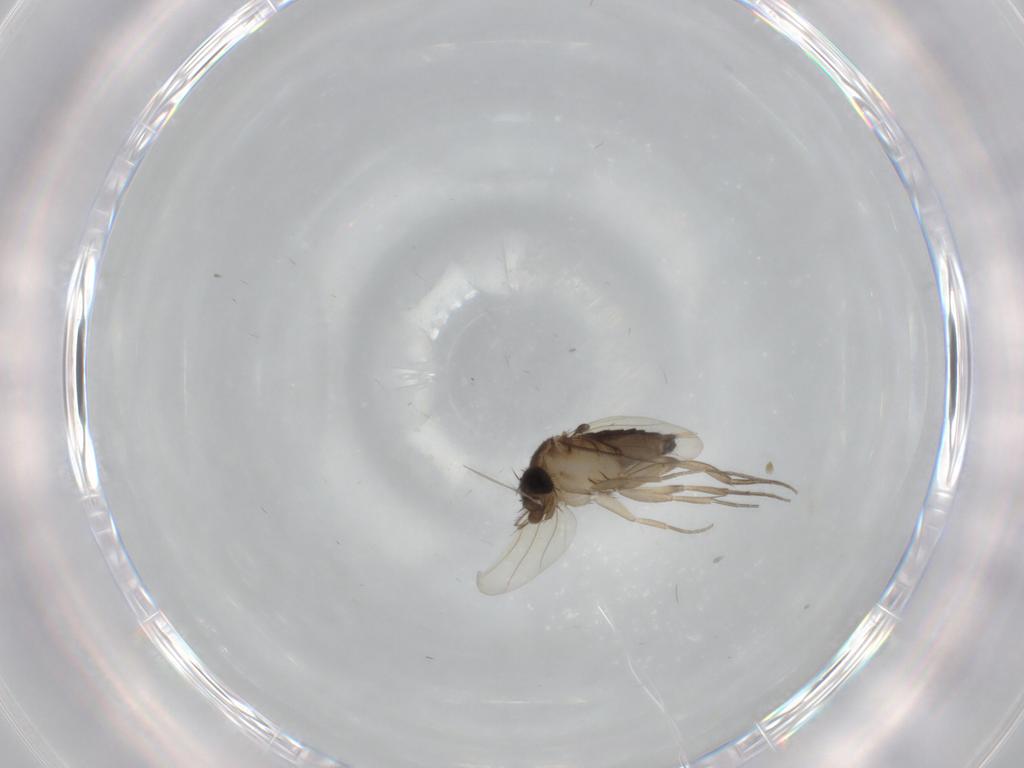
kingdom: Animalia
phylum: Arthropoda
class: Insecta
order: Diptera
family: Phoridae
